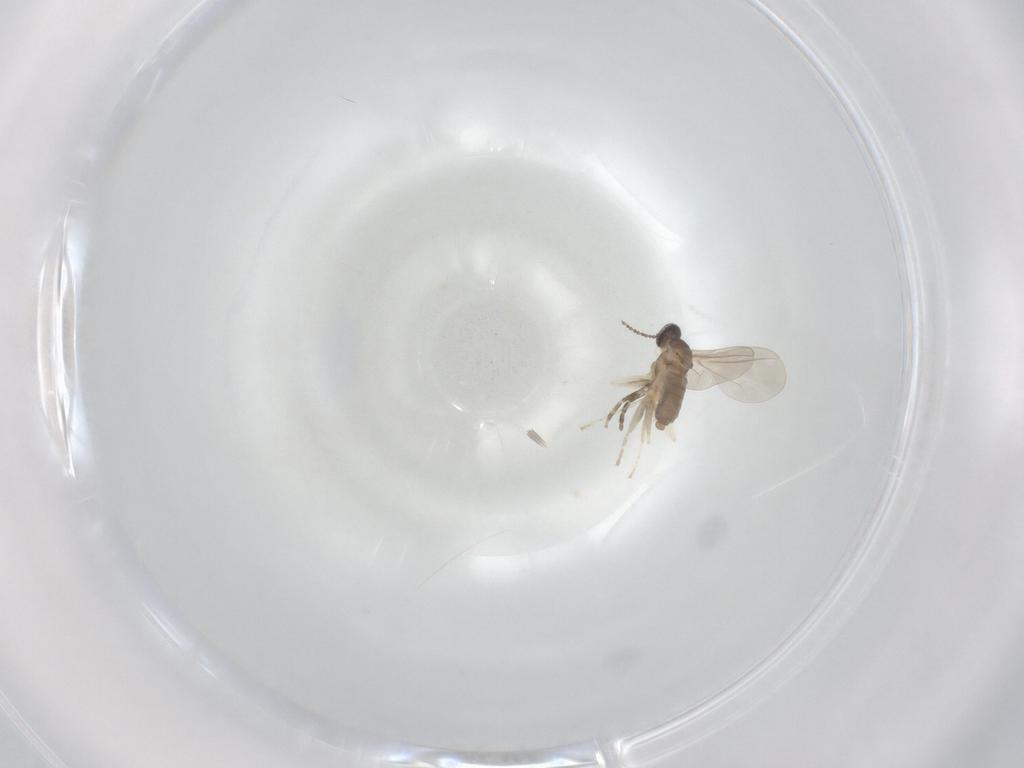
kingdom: Animalia
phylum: Arthropoda
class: Insecta
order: Diptera
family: Cecidomyiidae
